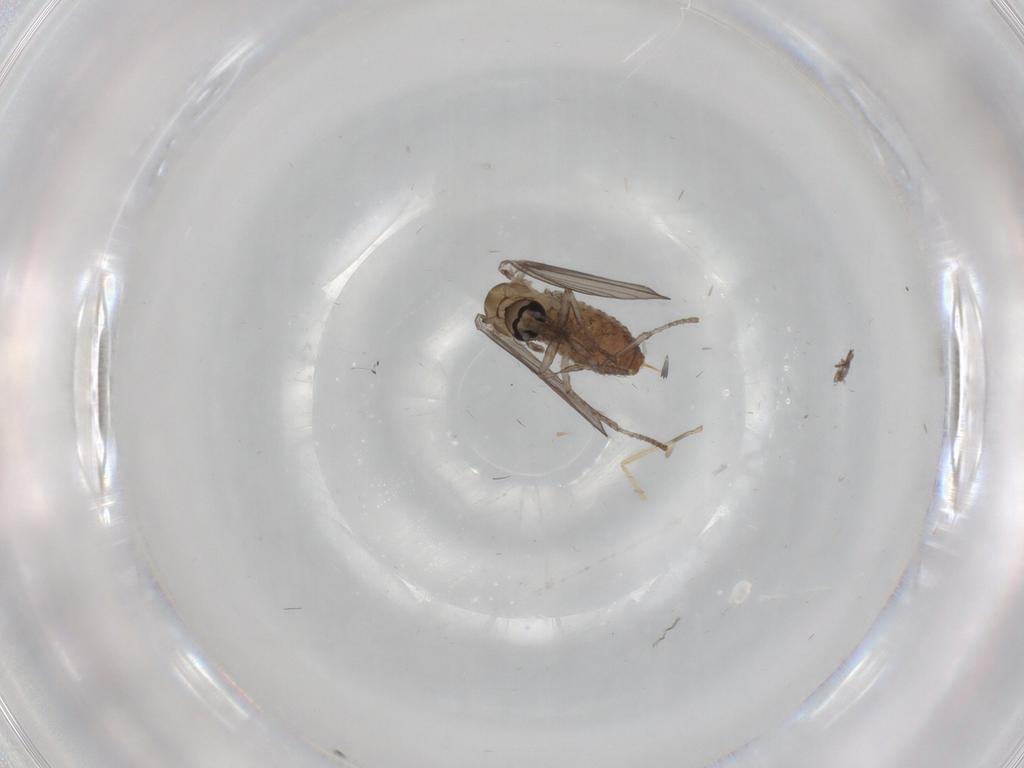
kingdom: Animalia
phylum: Arthropoda
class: Insecta
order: Diptera
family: Psychodidae
